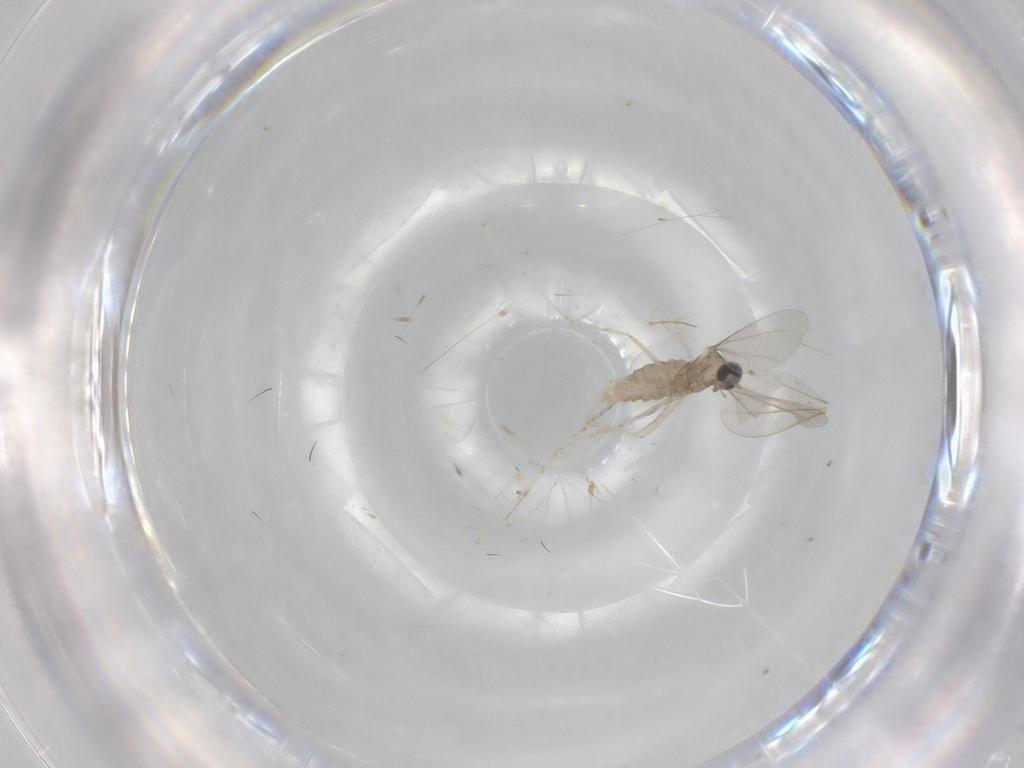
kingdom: Animalia
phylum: Arthropoda
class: Insecta
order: Diptera
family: Cecidomyiidae
